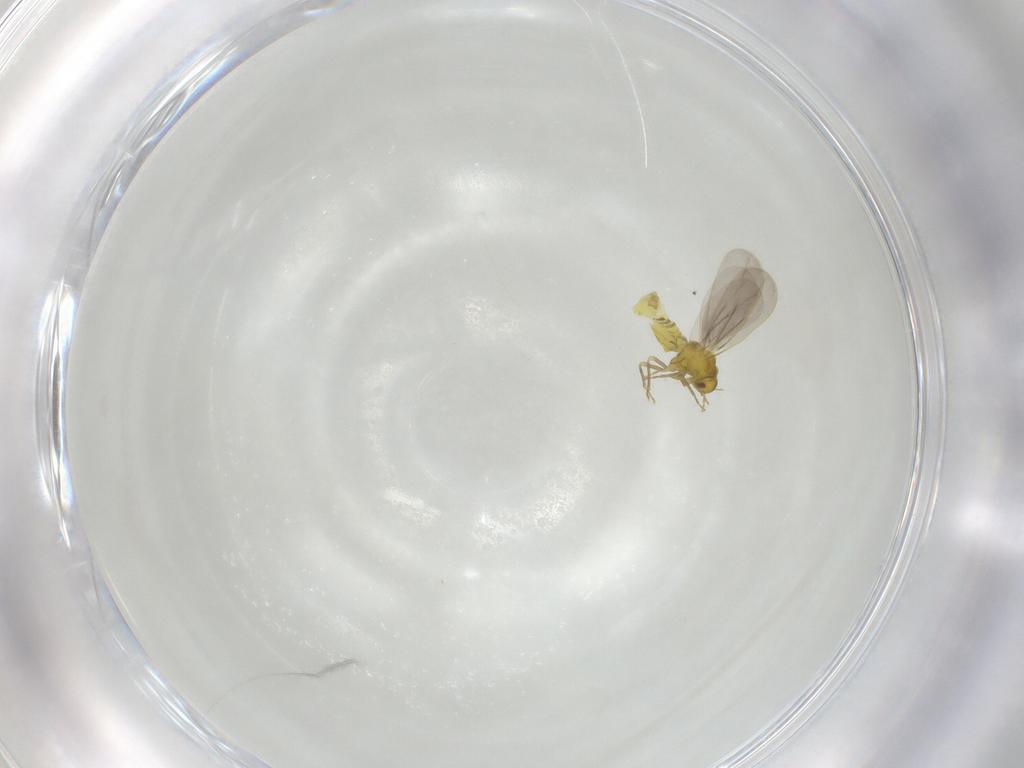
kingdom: Animalia
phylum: Arthropoda
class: Insecta
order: Hemiptera
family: Aleyrodidae
